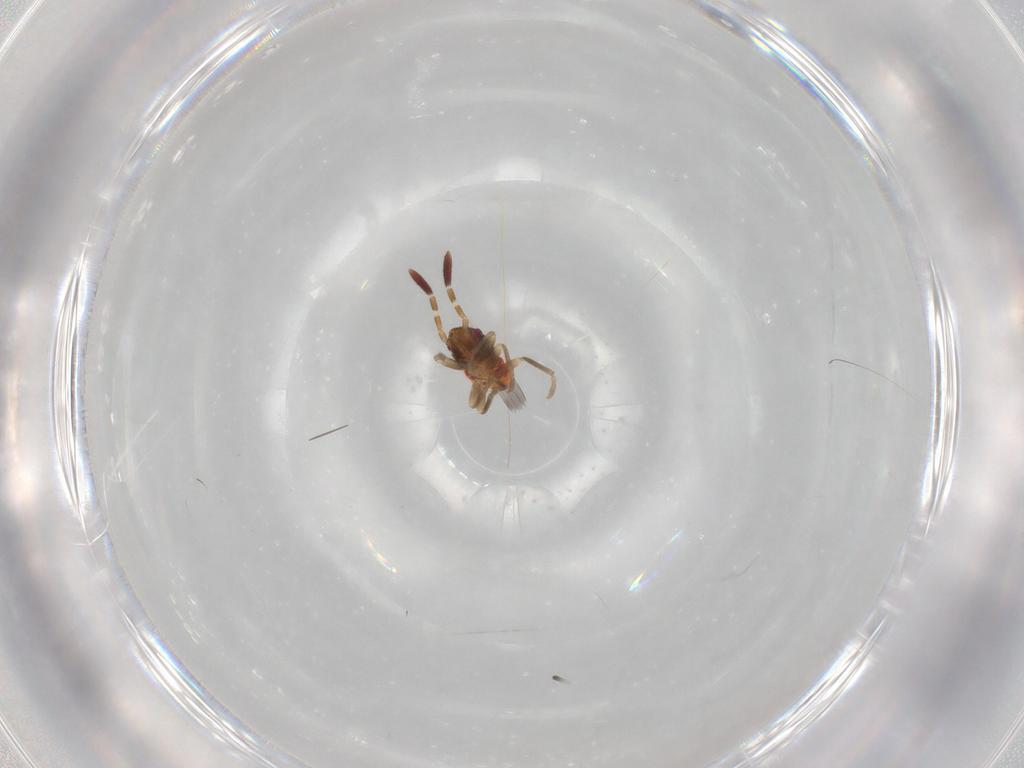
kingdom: Animalia
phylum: Arthropoda
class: Insecta
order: Hemiptera
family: Rhyparochromidae
